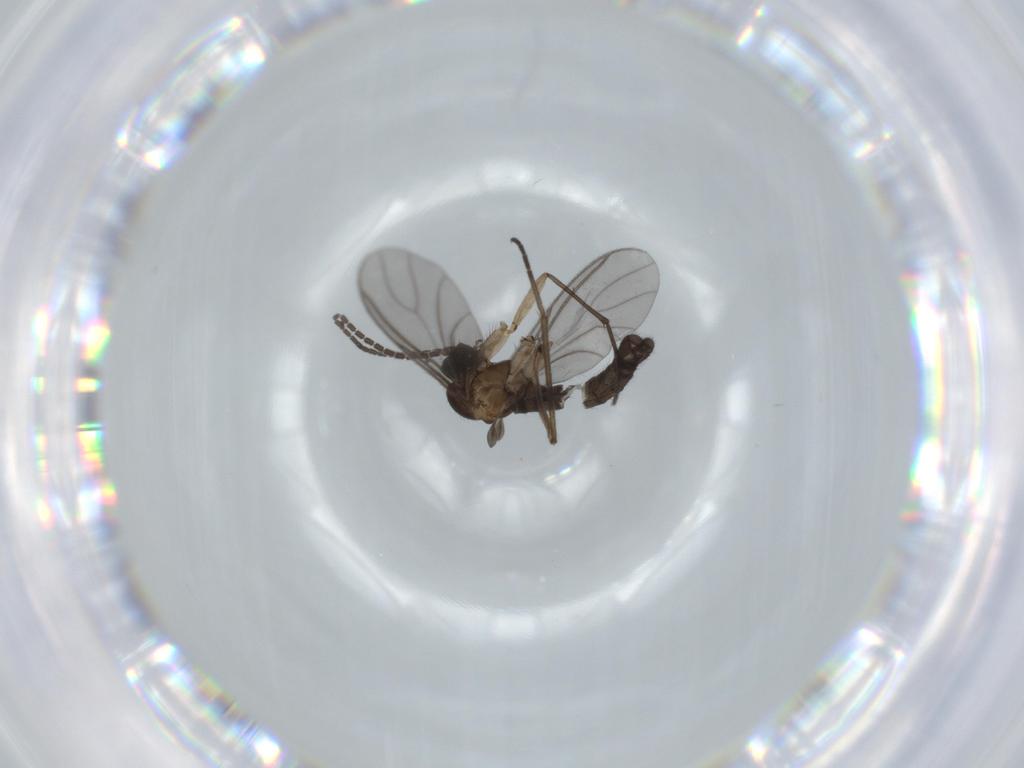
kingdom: Animalia
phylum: Arthropoda
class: Insecta
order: Diptera
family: Sciaridae
